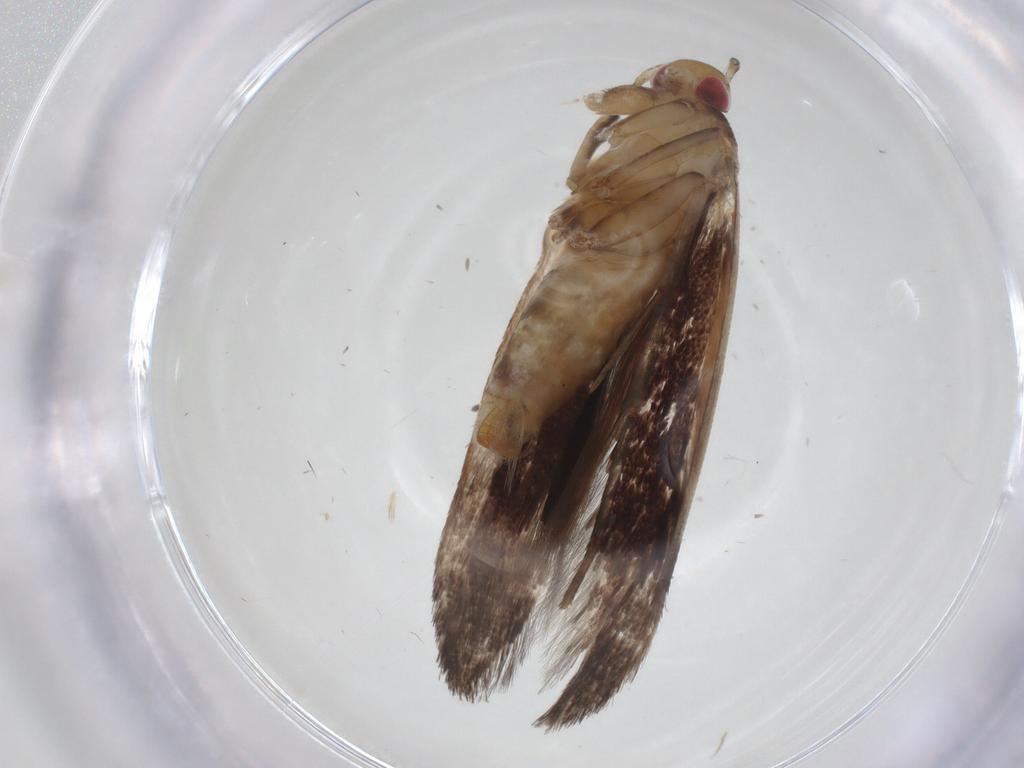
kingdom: Animalia
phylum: Arthropoda
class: Insecta
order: Lepidoptera
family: Cosmopterigidae
